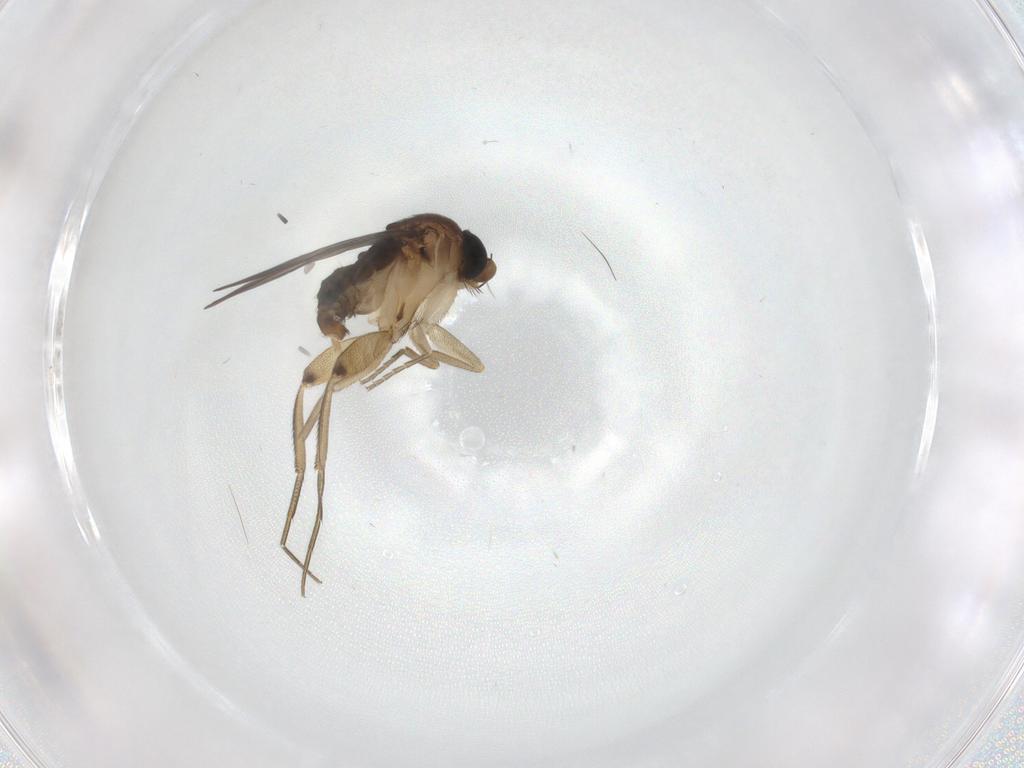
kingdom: Animalia
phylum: Arthropoda
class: Insecta
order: Diptera
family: Phoridae
